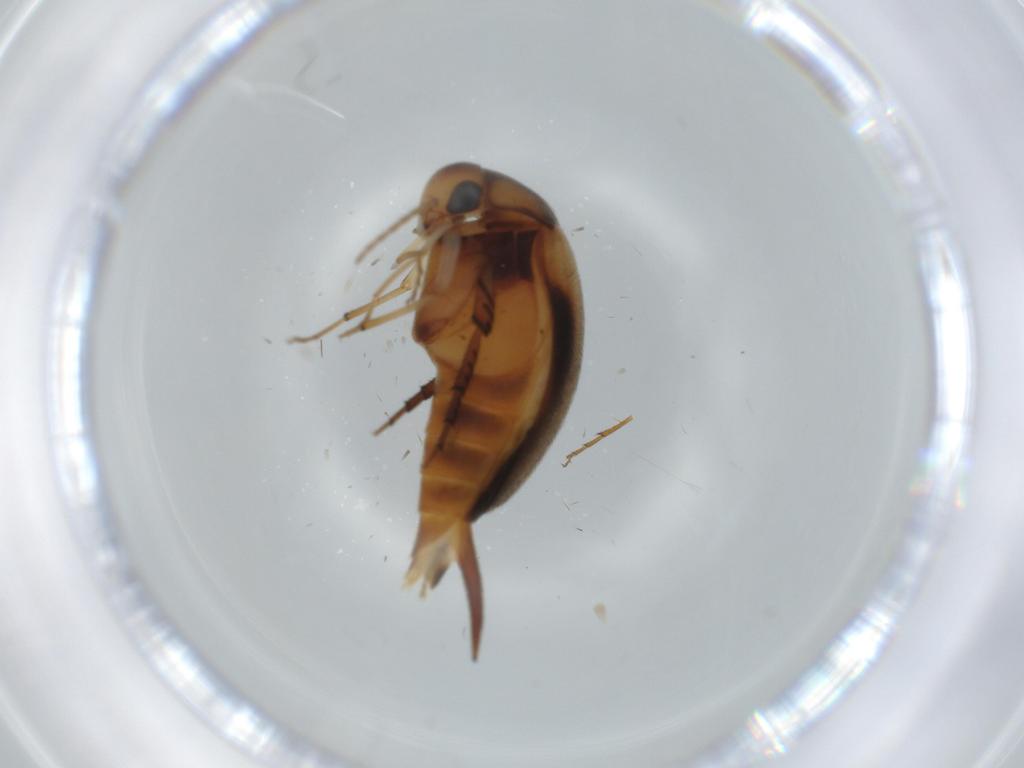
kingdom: Animalia
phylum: Arthropoda
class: Insecta
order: Coleoptera
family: Mordellidae
